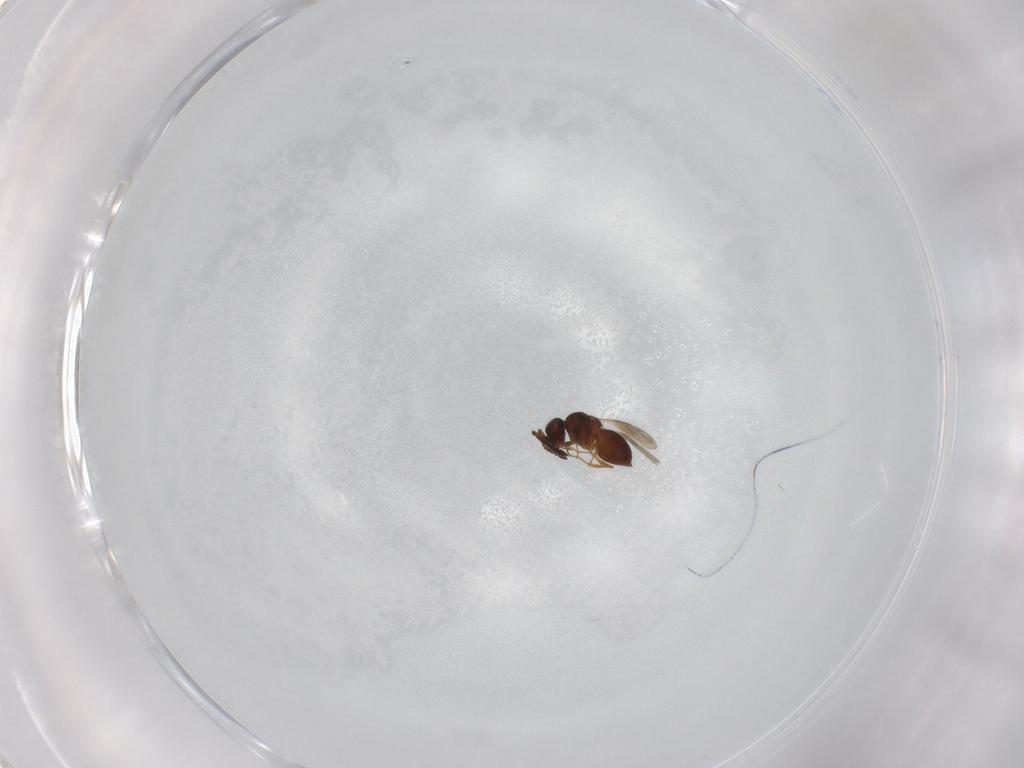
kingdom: Animalia
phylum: Arthropoda
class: Insecta
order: Hymenoptera
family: Ceraphronidae
